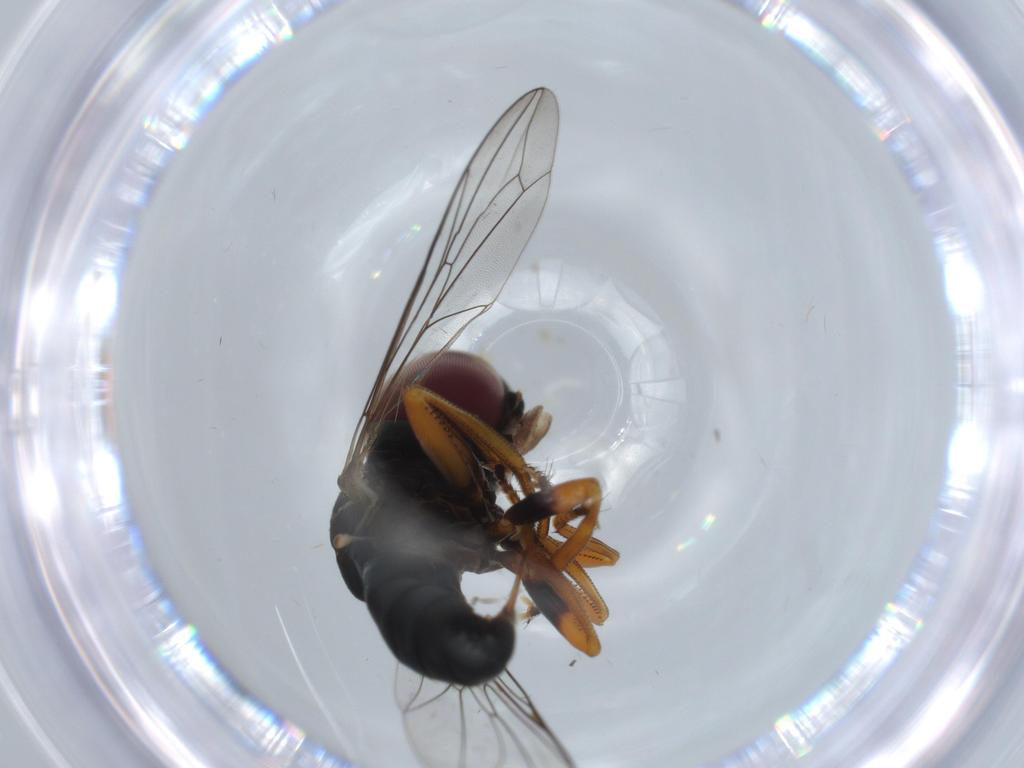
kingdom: Animalia
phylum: Arthropoda
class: Insecta
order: Diptera
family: Pipunculidae
